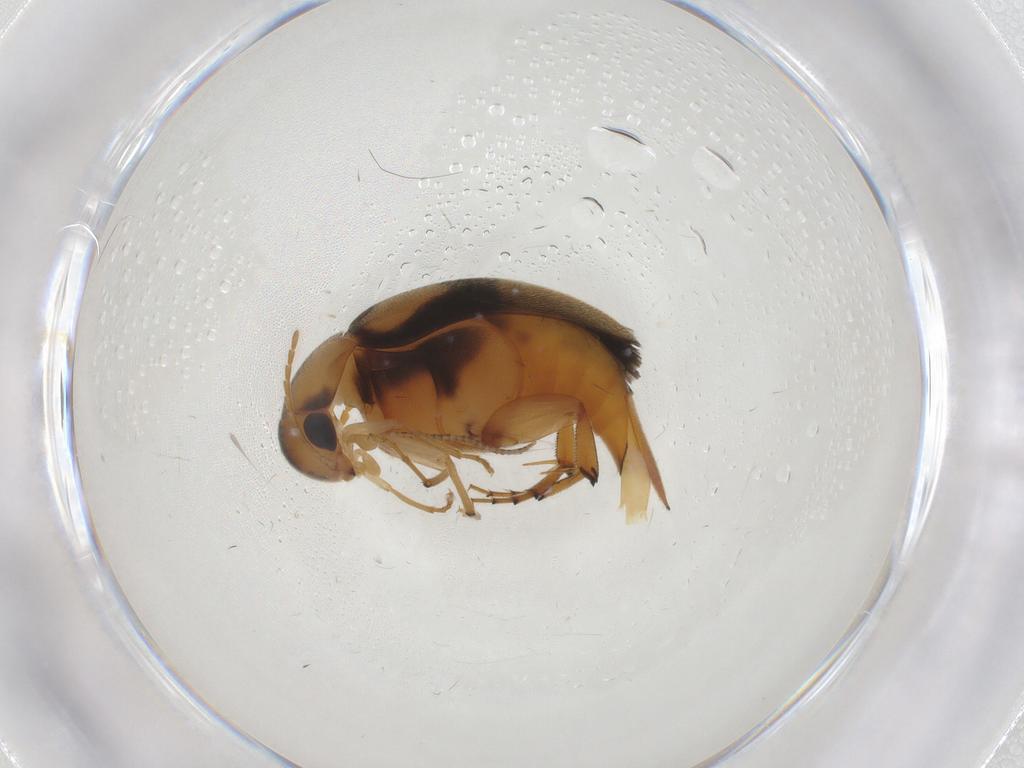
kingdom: Animalia
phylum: Arthropoda
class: Insecta
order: Coleoptera
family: Mordellidae
